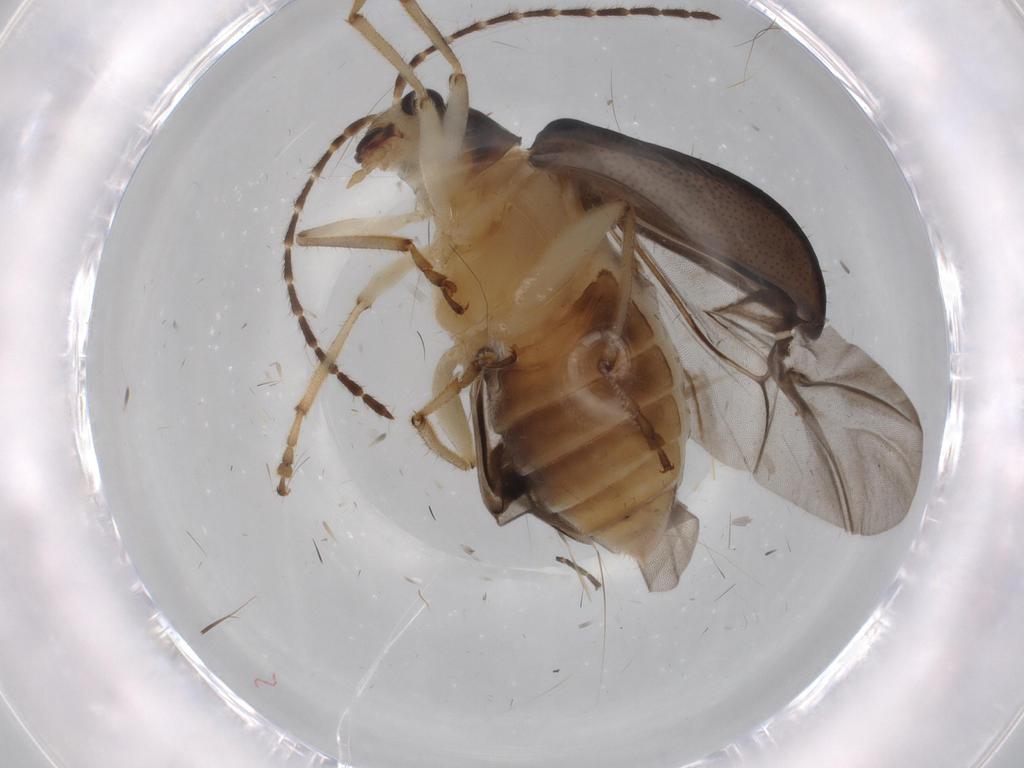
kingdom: Animalia
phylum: Arthropoda
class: Insecta
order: Coleoptera
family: Chrysomelidae
